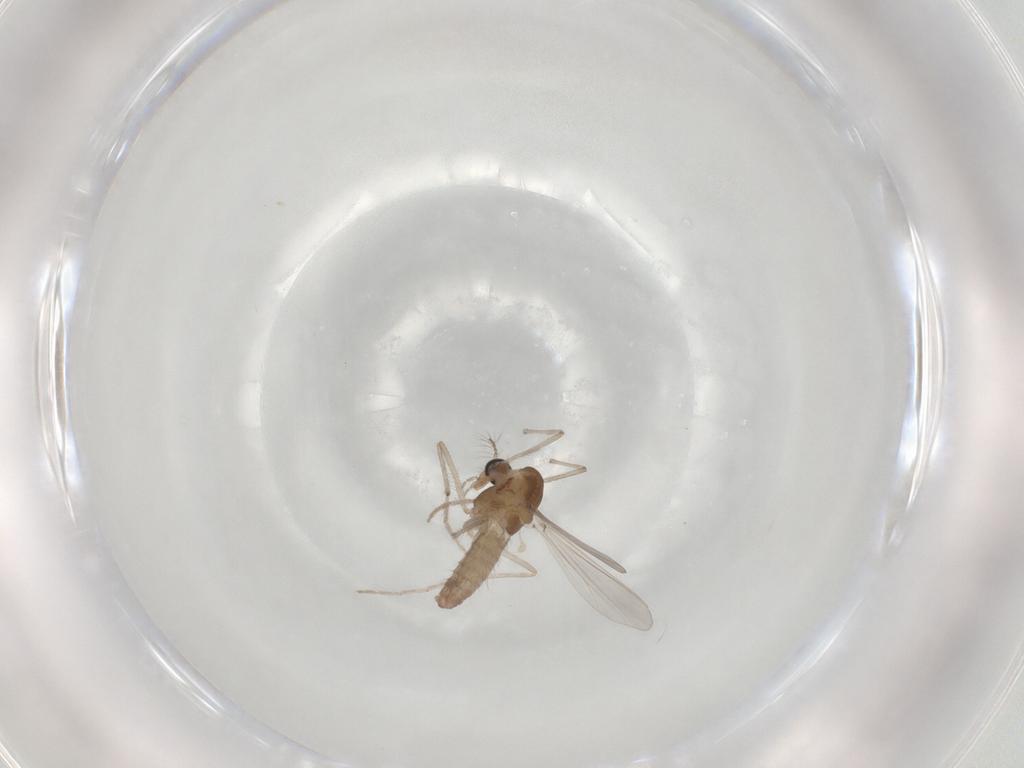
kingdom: Animalia
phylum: Arthropoda
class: Insecta
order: Diptera
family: Chironomidae
